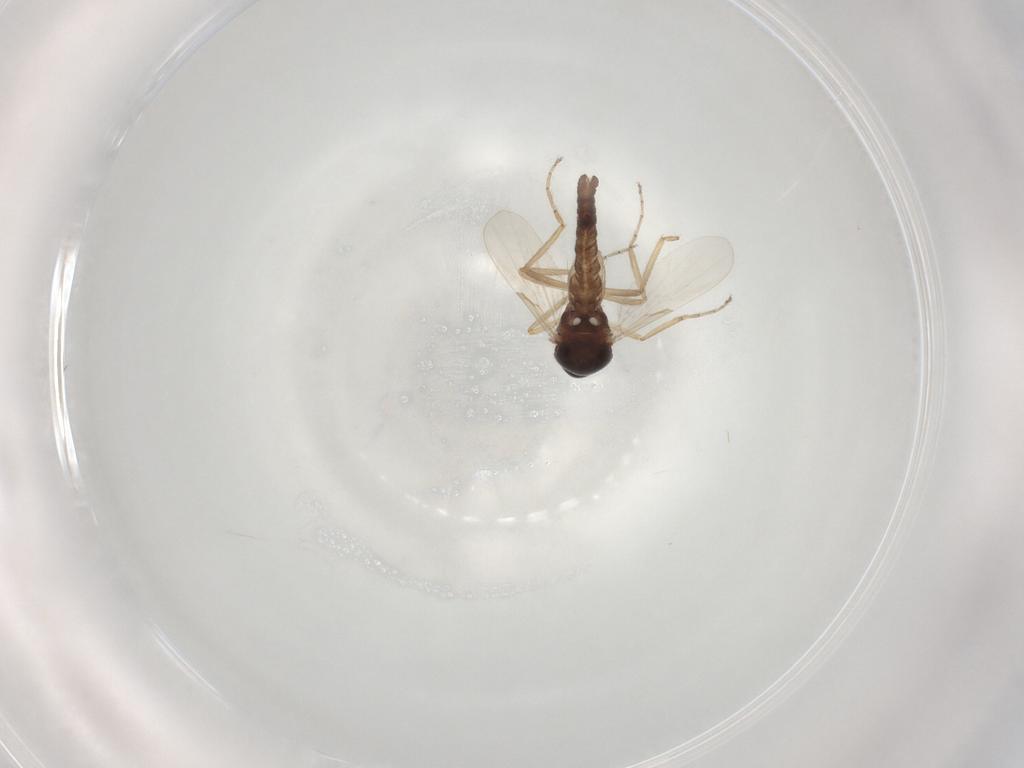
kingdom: Animalia
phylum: Arthropoda
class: Insecta
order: Diptera
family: Ceratopogonidae
